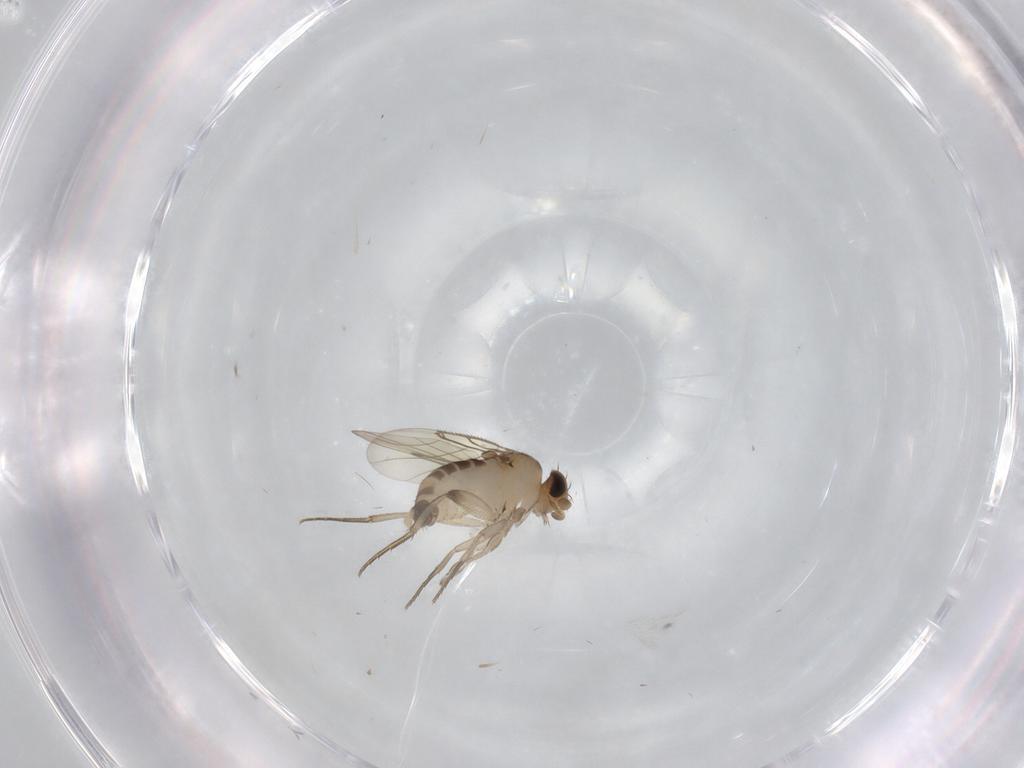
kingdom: Animalia
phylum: Arthropoda
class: Insecta
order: Diptera
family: Phoridae
